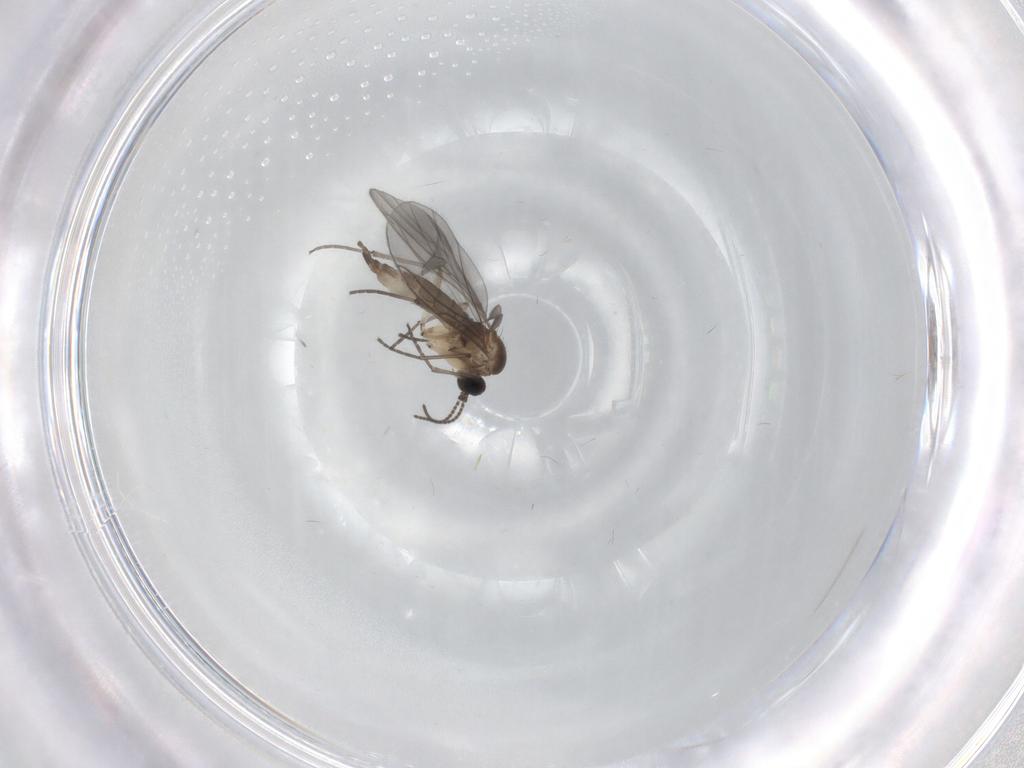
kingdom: Animalia
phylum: Arthropoda
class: Insecta
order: Diptera
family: Sciaridae
